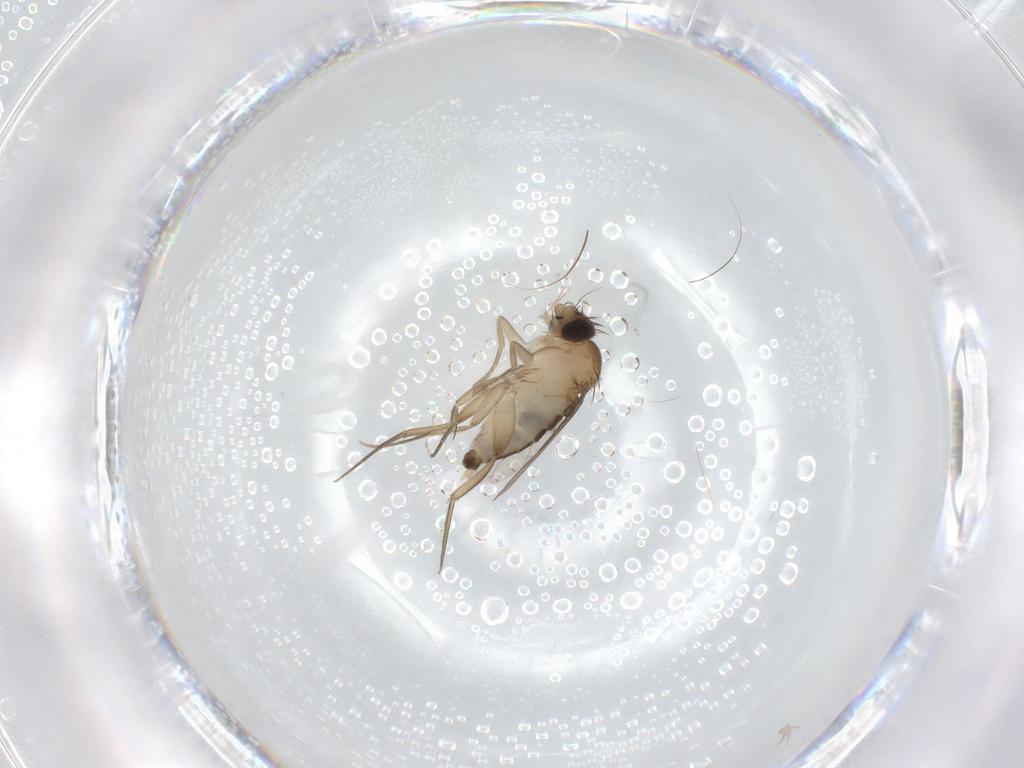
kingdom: Animalia
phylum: Arthropoda
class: Insecta
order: Diptera
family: Phoridae
